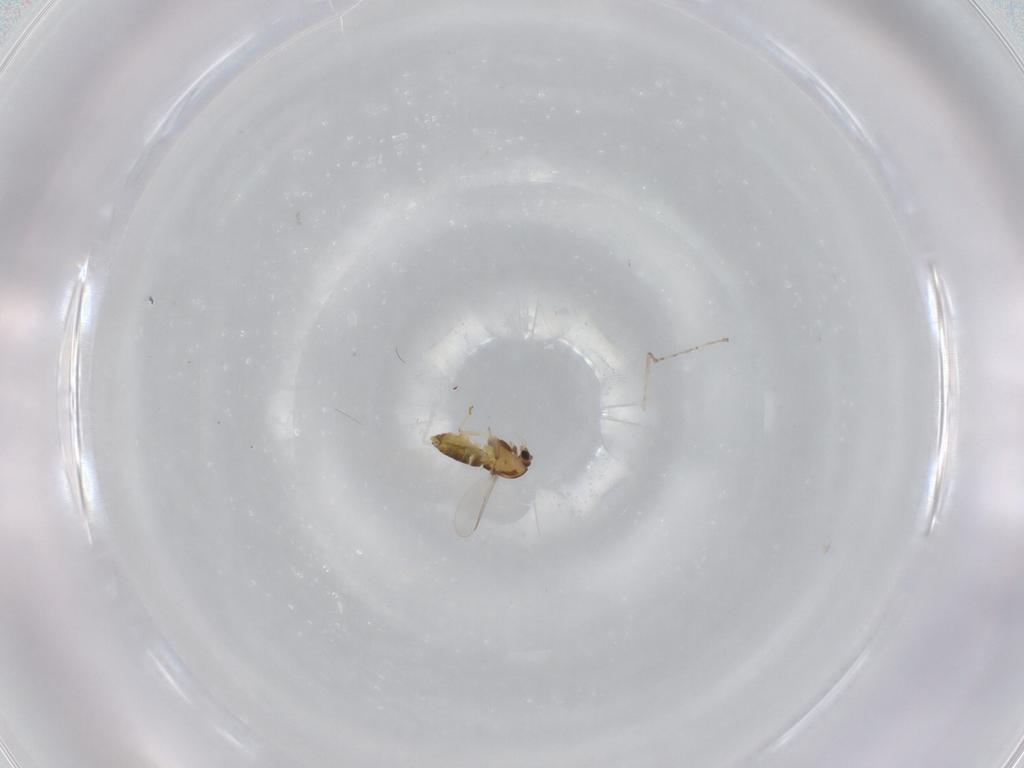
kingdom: Animalia
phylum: Arthropoda
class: Insecta
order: Diptera
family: Chironomidae
